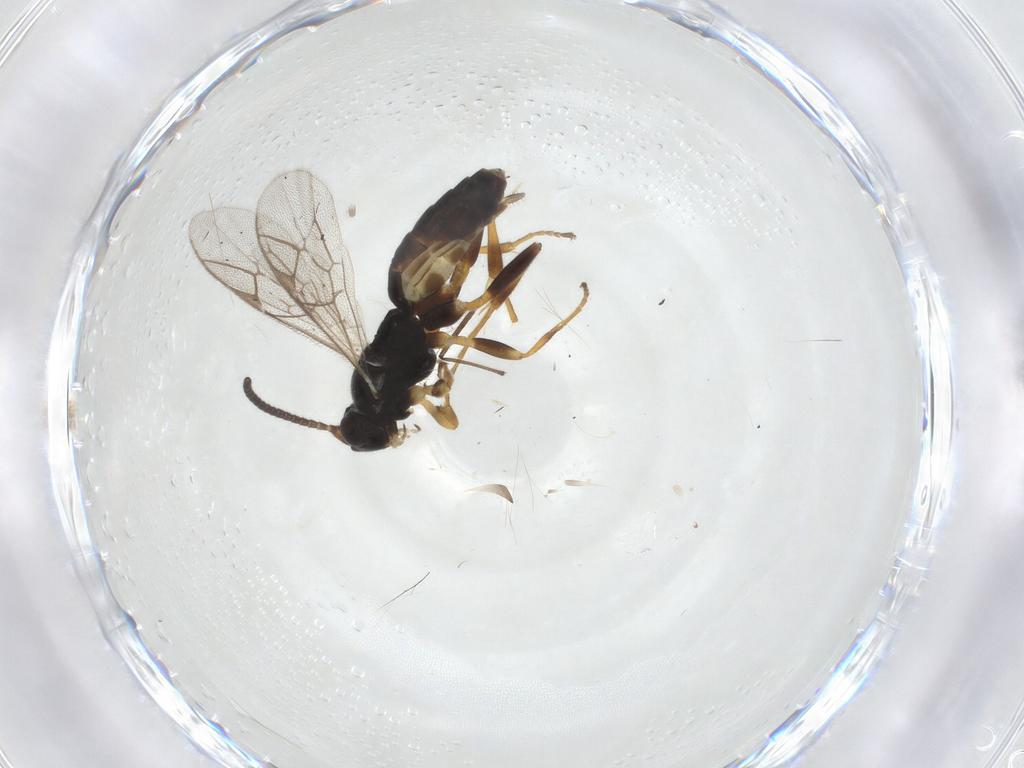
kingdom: Animalia
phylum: Arthropoda
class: Insecta
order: Hymenoptera
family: Ichneumonidae
